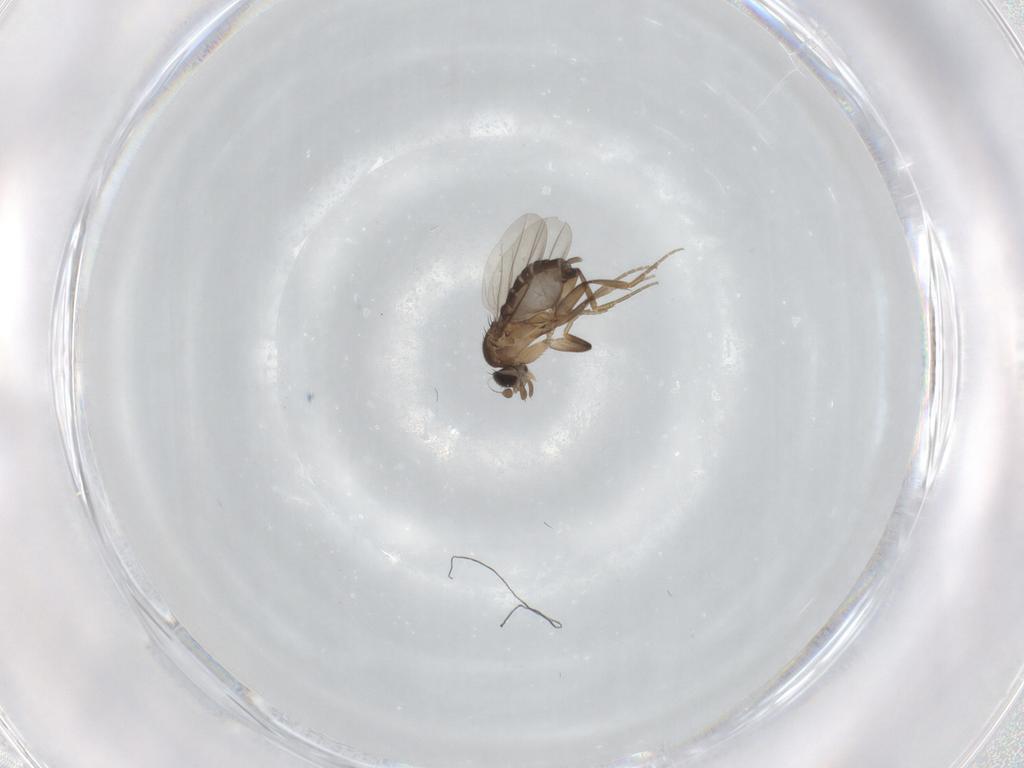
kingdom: Animalia
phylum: Arthropoda
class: Insecta
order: Diptera
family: Phoridae
